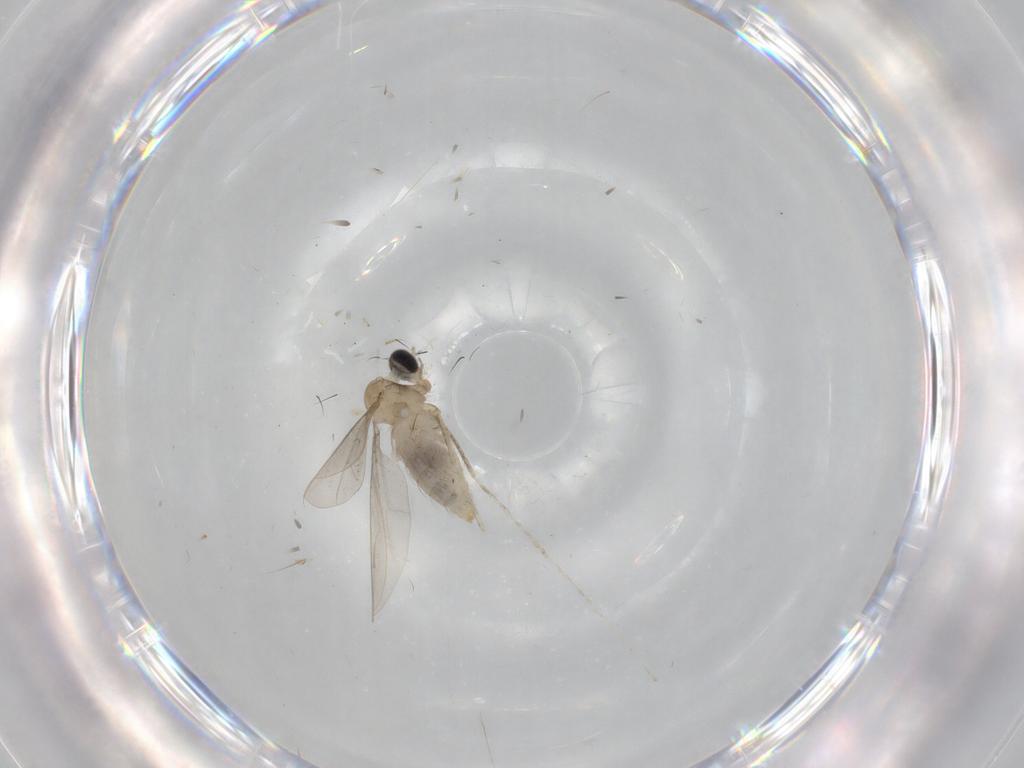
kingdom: Animalia
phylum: Arthropoda
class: Insecta
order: Diptera
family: Cecidomyiidae
